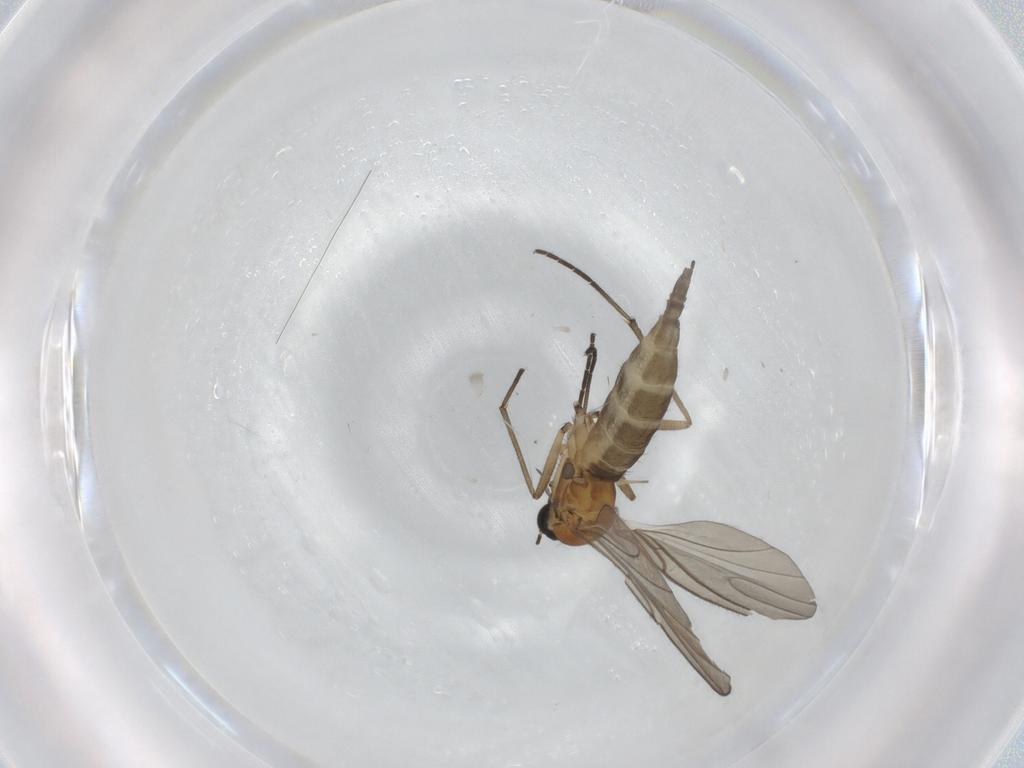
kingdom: Animalia
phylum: Arthropoda
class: Insecta
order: Diptera
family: Sciaridae
